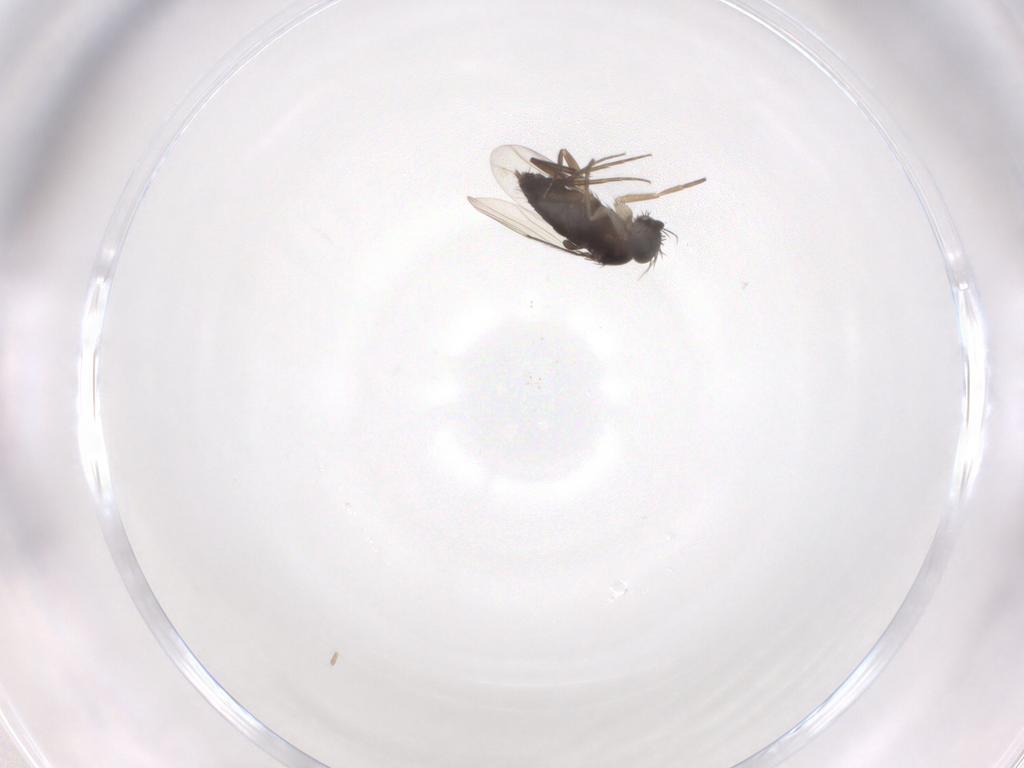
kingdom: Animalia
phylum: Arthropoda
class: Insecta
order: Diptera
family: Phoridae
